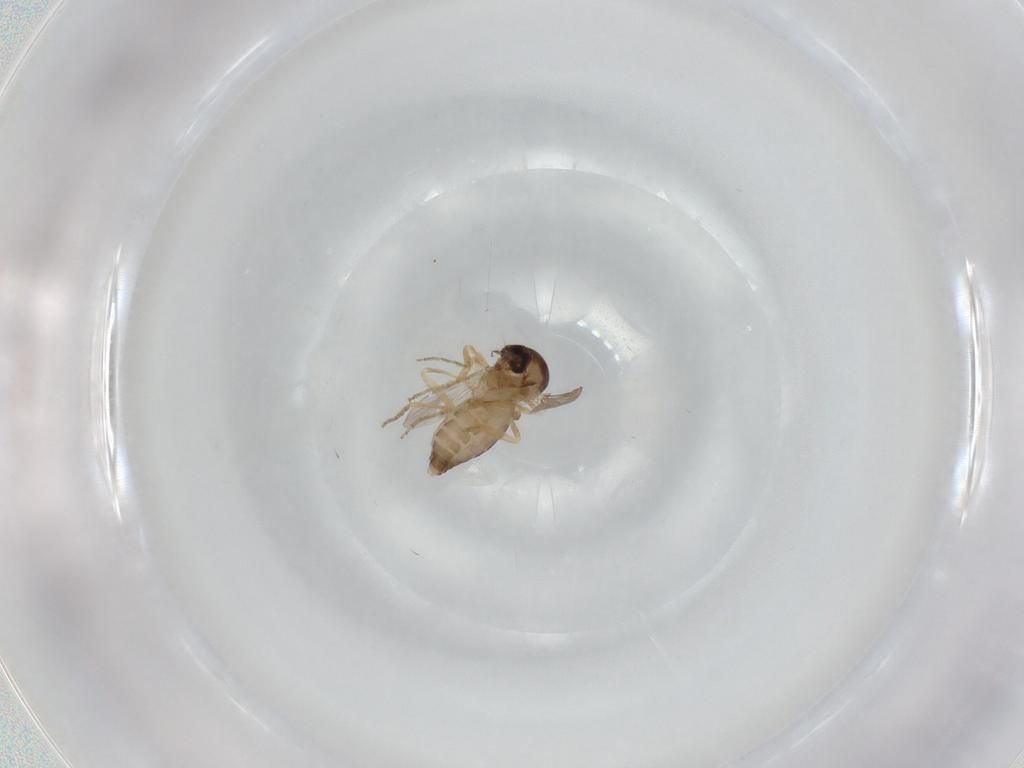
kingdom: Animalia
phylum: Arthropoda
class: Insecta
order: Diptera
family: Ceratopogonidae
